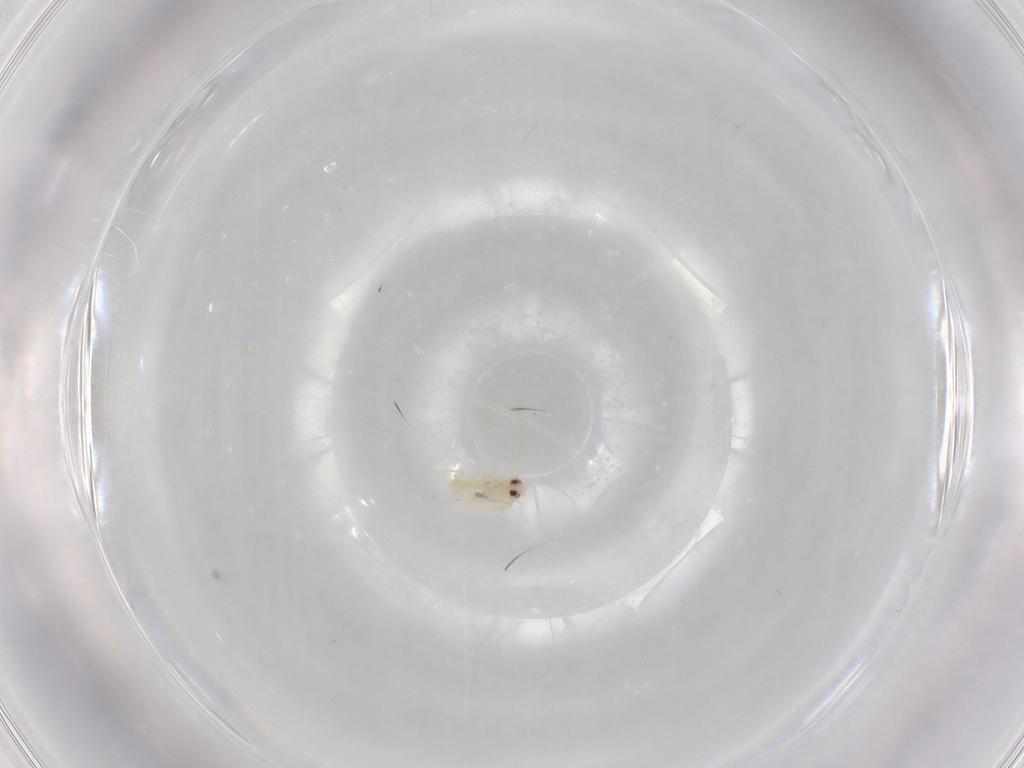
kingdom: Animalia
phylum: Arthropoda
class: Insecta
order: Hemiptera
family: Aleyrodidae
